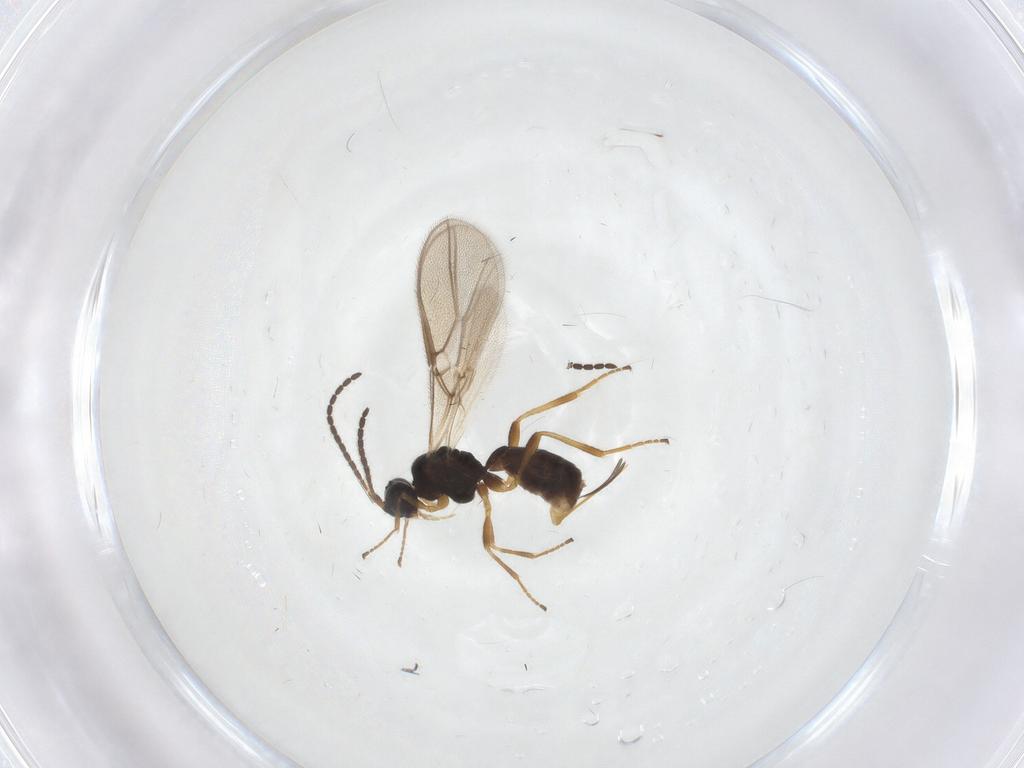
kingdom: Animalia
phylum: Arthropoda
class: Insecta
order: Hymenoptera
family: Braconidae
